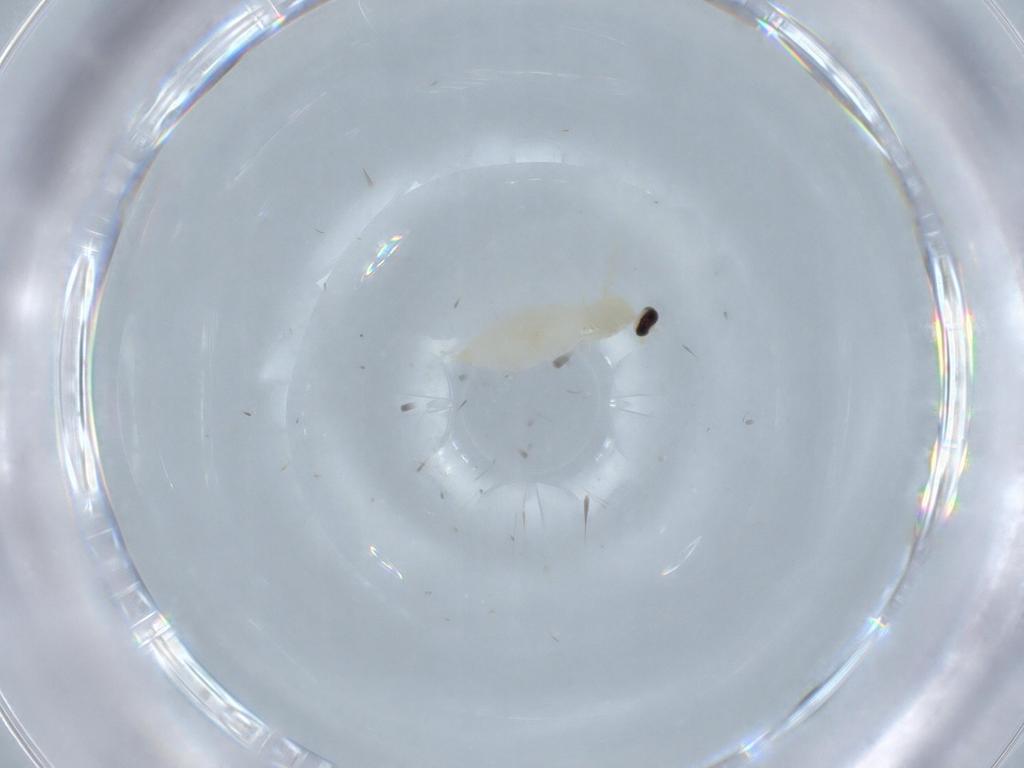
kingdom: Animalia
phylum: Arthropoda
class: Insecta
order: Diptera
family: Cecidomyiidae
